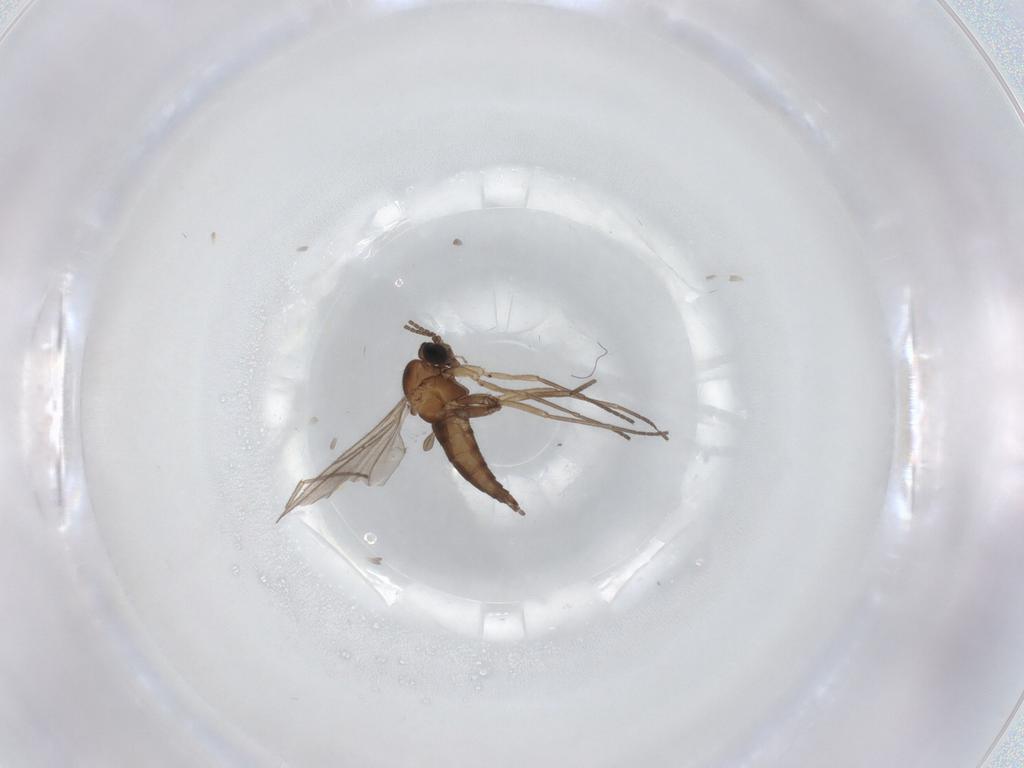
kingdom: Animalia
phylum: Arthropoda
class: Insecta
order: Diptera
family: Sciaridae
